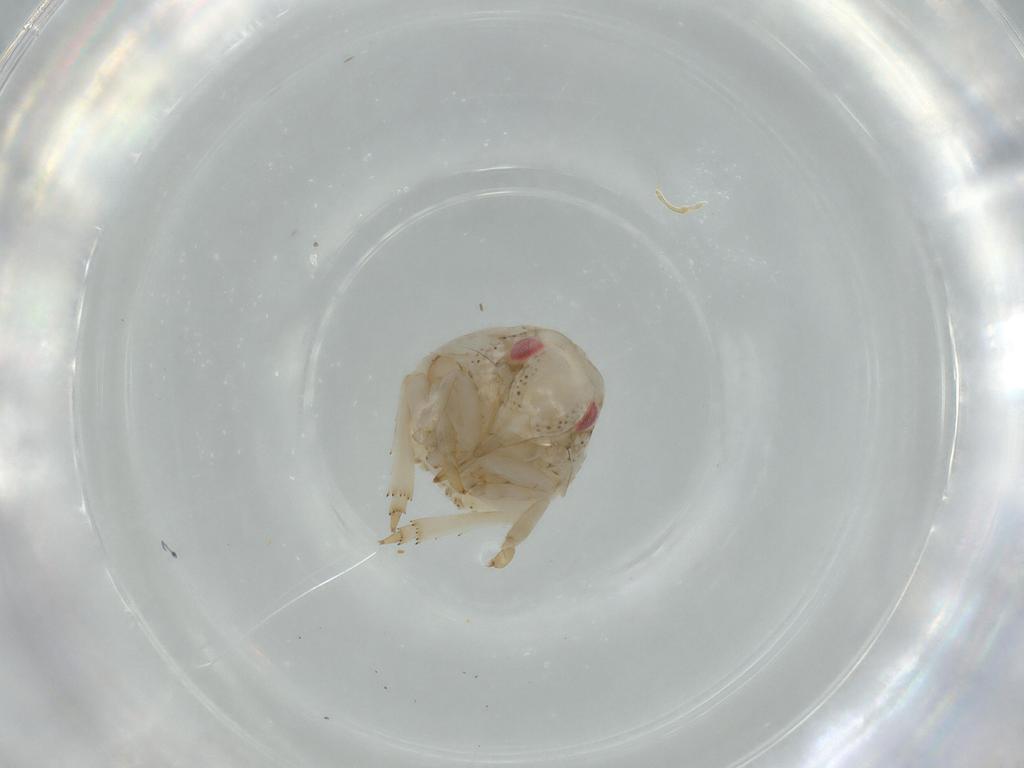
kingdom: Animalia
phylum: Arthropoda
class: Insecta
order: Hemiptera
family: Acanaloniidae
